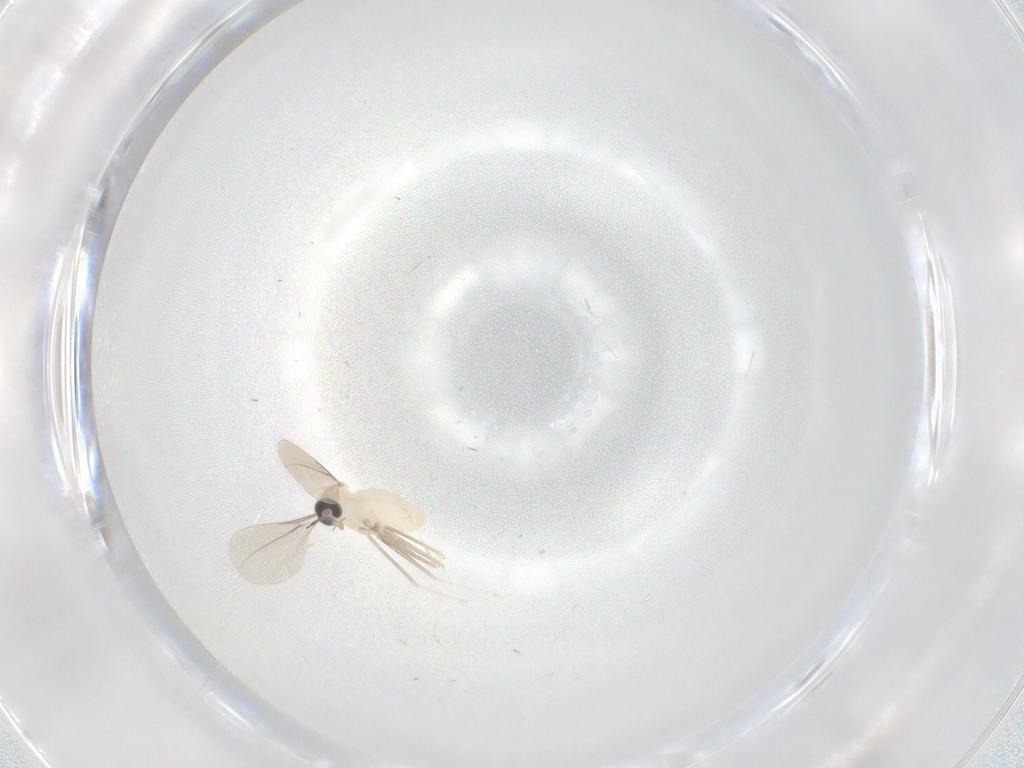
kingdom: Animalia
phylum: Arthropoda
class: Insecta
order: Diptera
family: Cecidomyiidae
